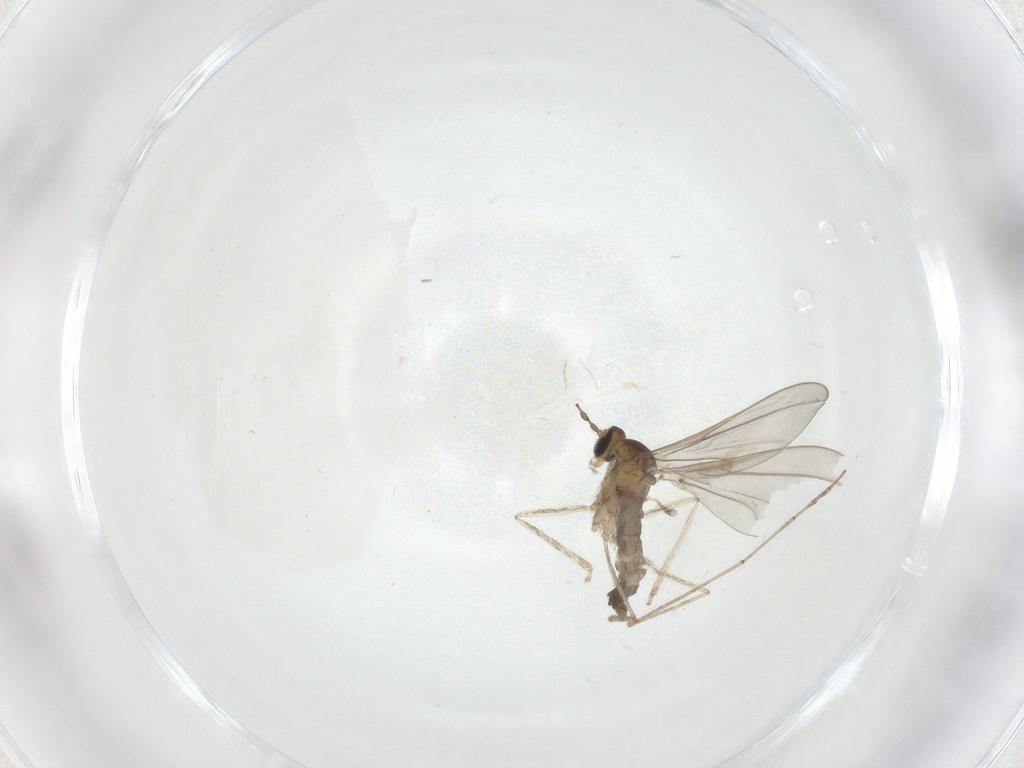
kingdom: Animalia
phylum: Arthropoda
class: Insecta
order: Diptera
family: Cecidomyiidae
